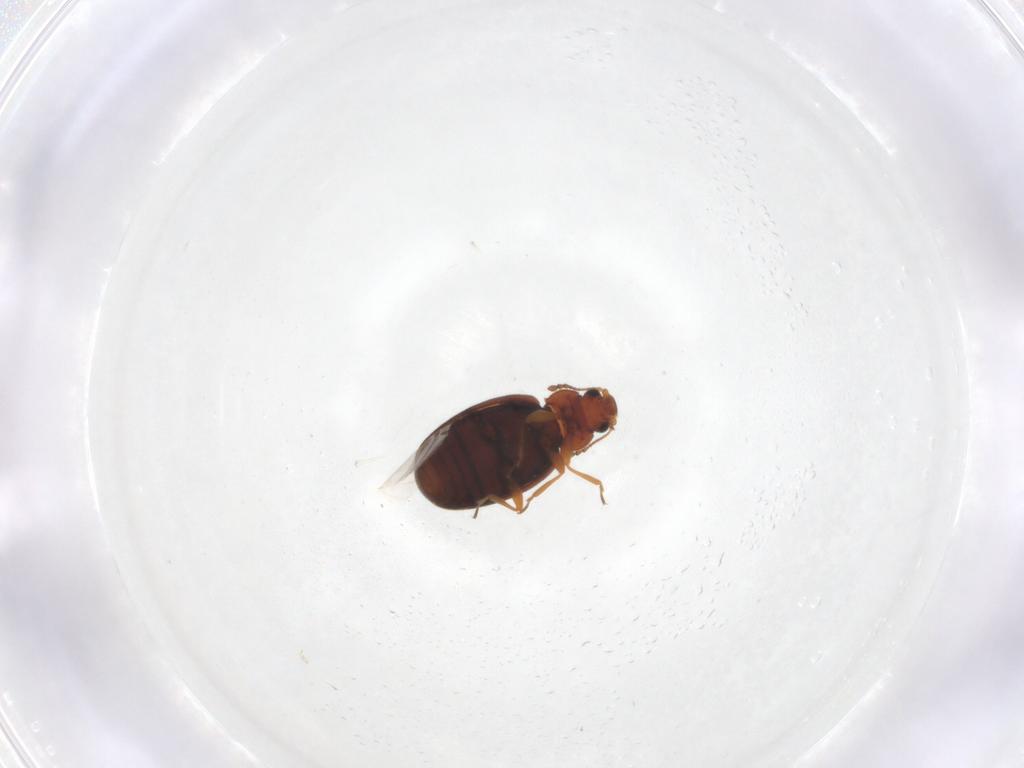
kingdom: Animalia
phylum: Arthropoda
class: Insecta
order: Coleoptera
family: Latridiidae
